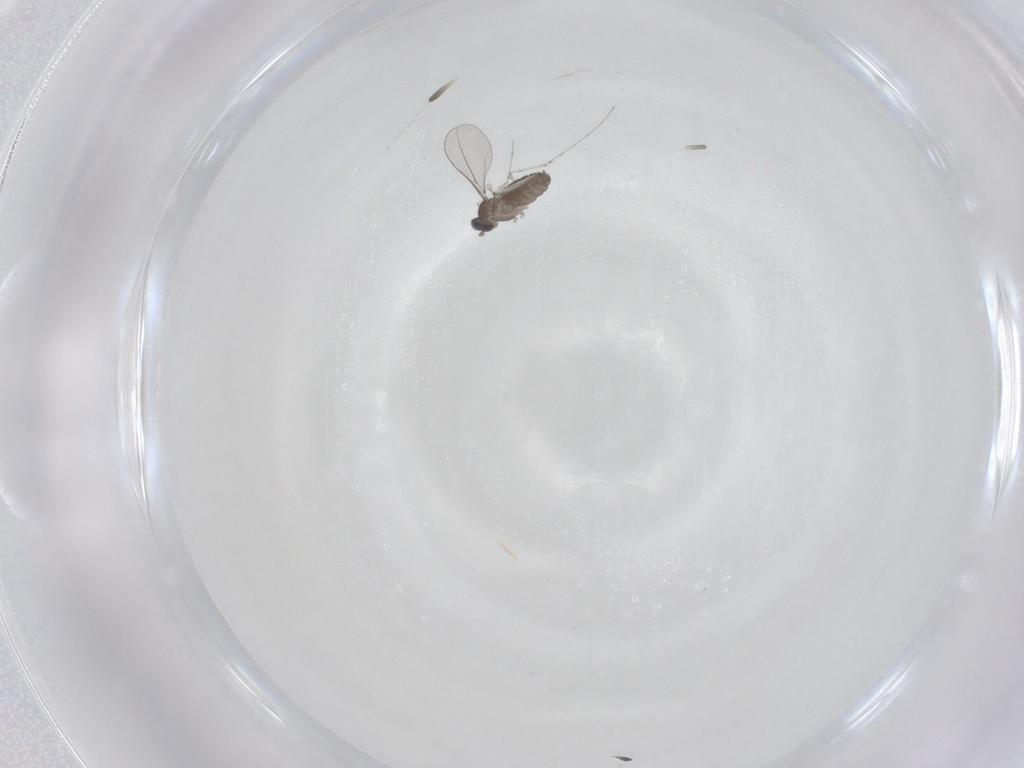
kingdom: Animalia
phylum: Arthropoda
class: Insecta
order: Diptera
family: Cecidomyiidae
